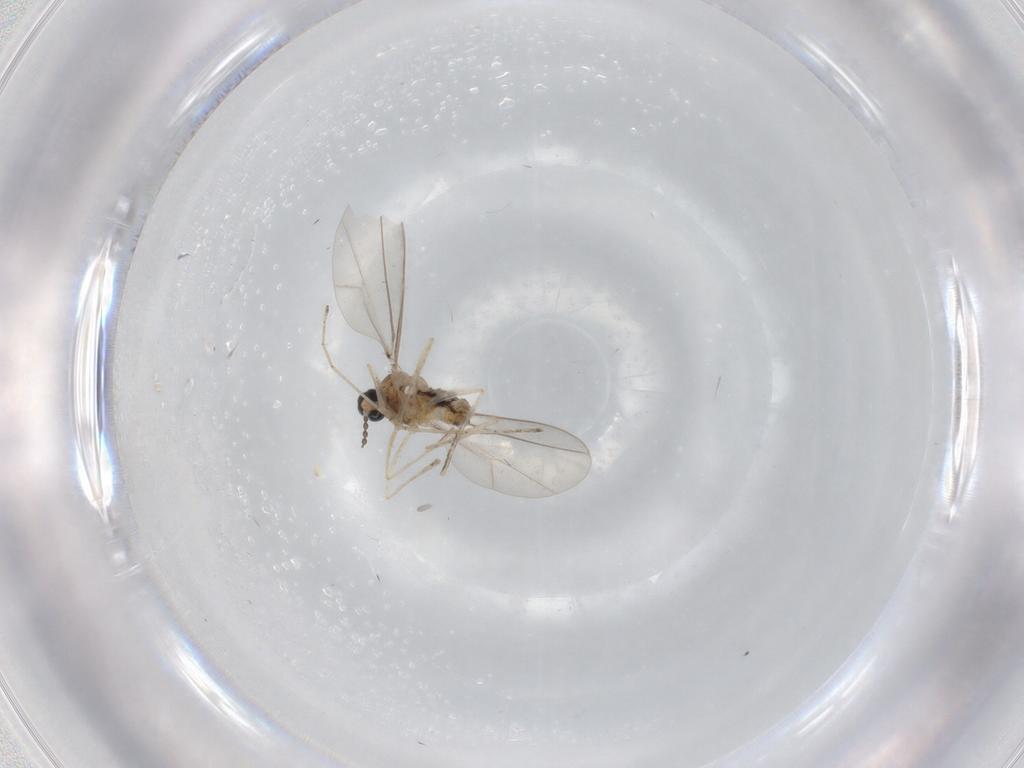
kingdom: Animalia
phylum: Arthropoda
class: Insecta
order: Diptera
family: Cecidomyiidae
